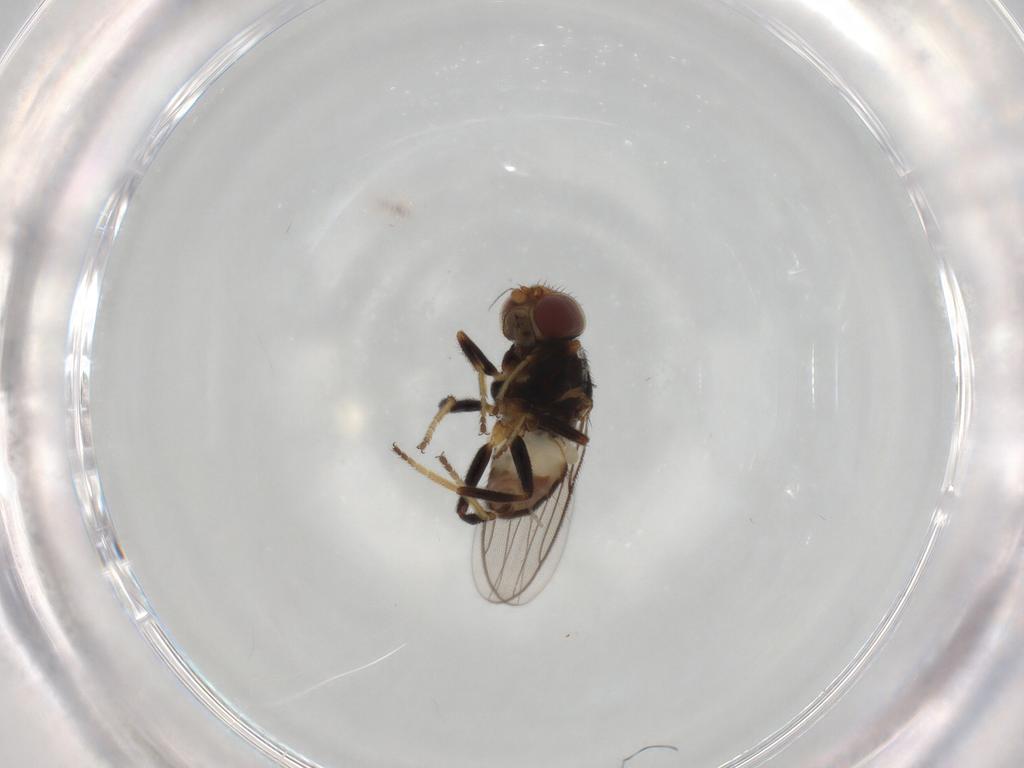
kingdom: Animalia
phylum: Arthropoda
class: Insecta
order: Diptera
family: Chloropidae
